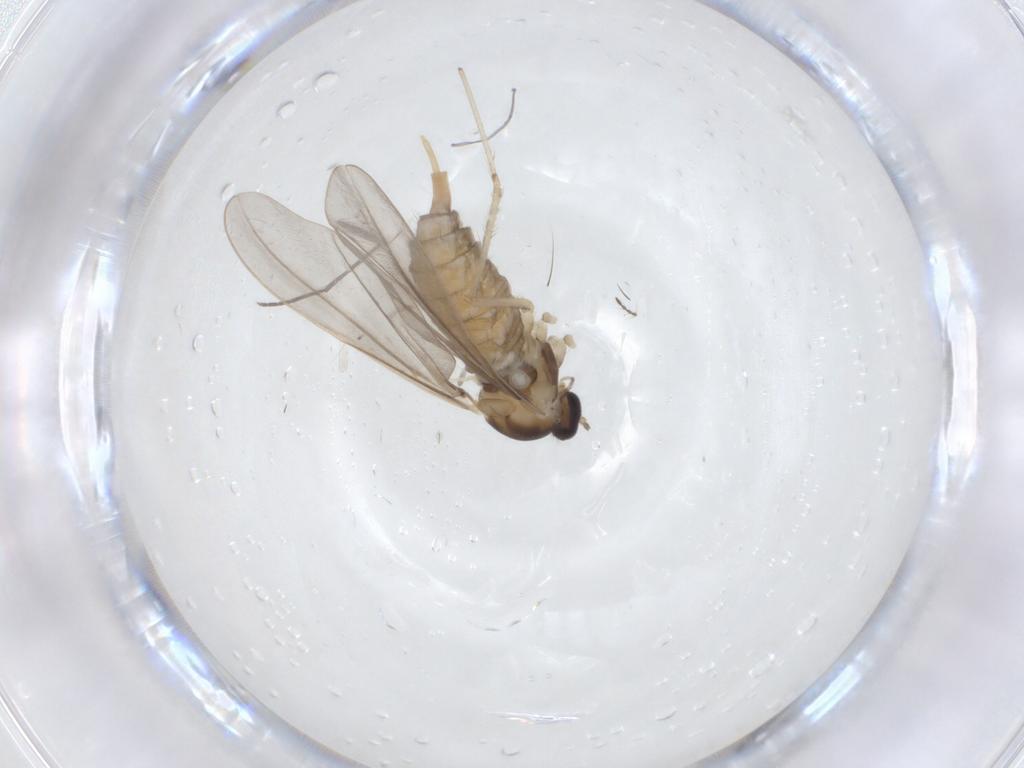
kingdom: Animalia
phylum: Arthropoda
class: Insecta
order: Diptera
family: Cecidomyiidae
